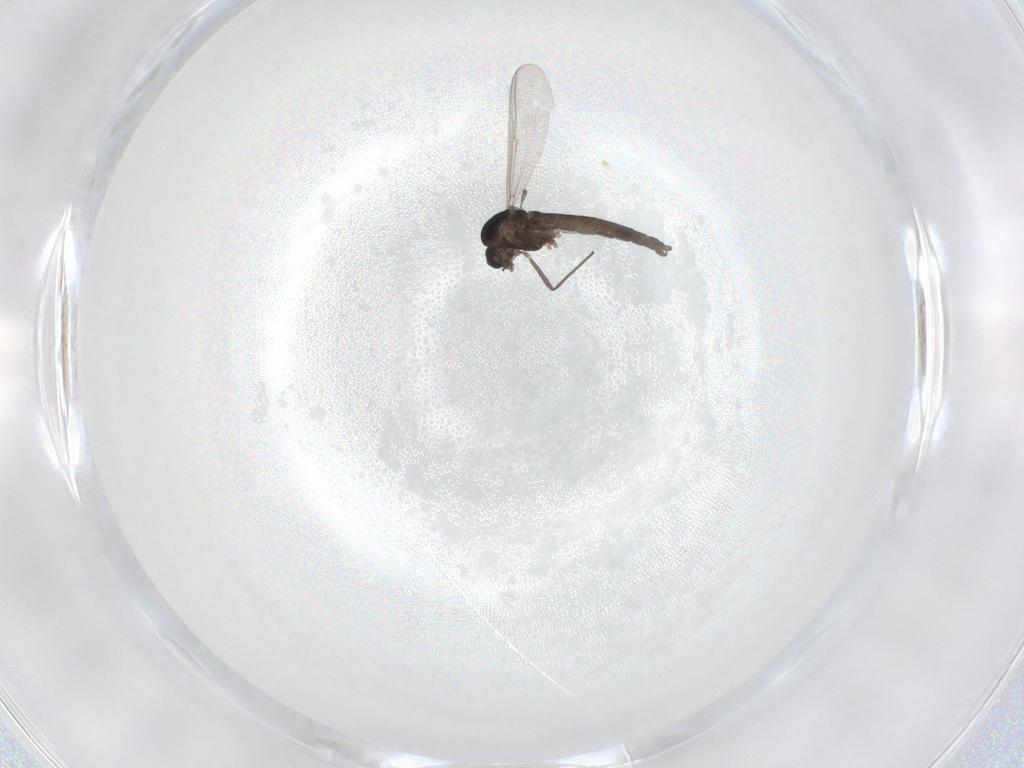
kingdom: Animalia
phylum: Arthropoda
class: Insecta
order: Diptera
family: Chironomidae
